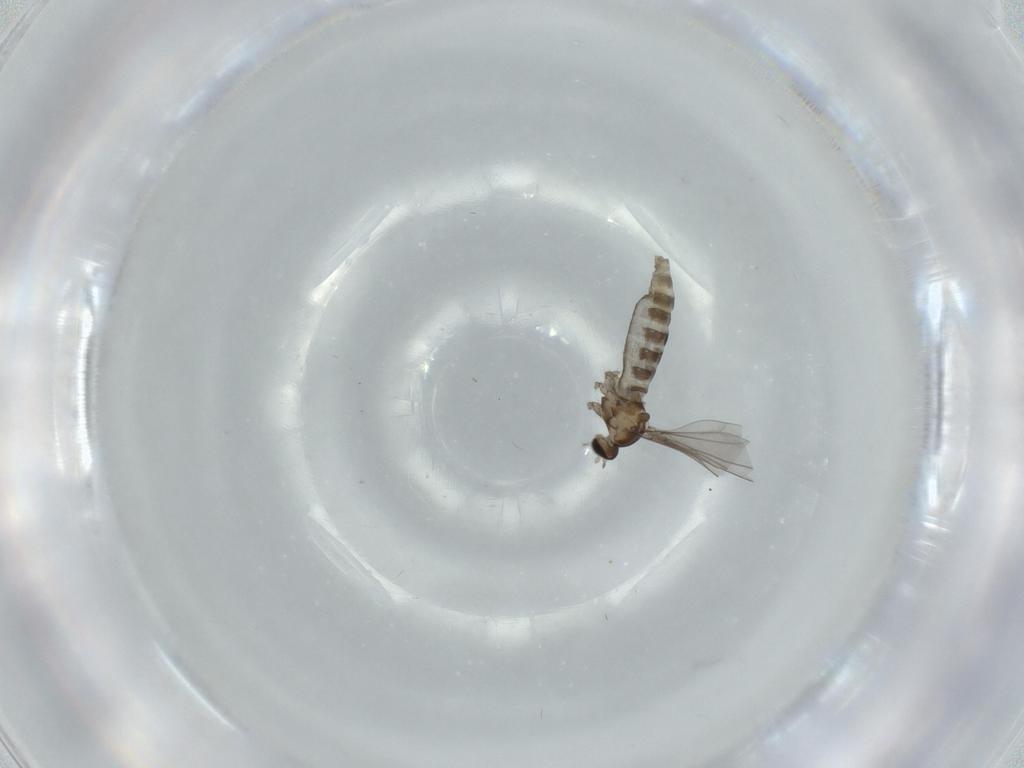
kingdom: Animalia
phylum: Arthropoda
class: Insecta
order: Diptera
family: Cecidomyiidae
